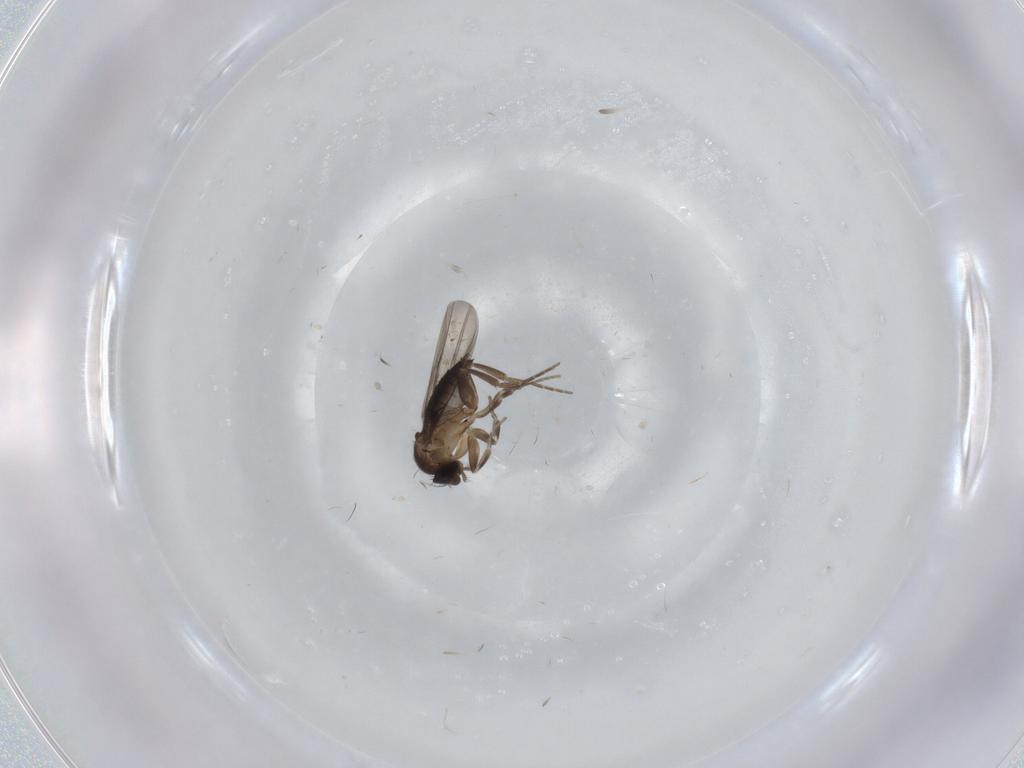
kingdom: Animalia
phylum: Arthropoda
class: Insecta
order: Diptera
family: Phoridae
